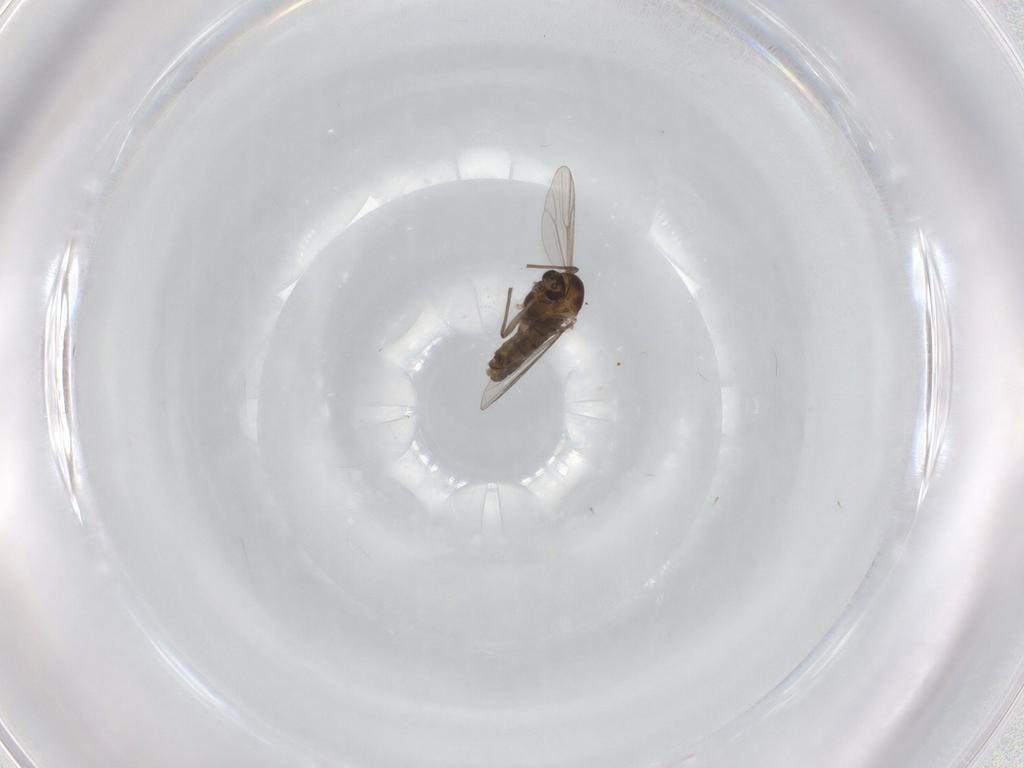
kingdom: Animalia
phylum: Arthropoda
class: Insecta
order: Diptera
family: Chironomidae
